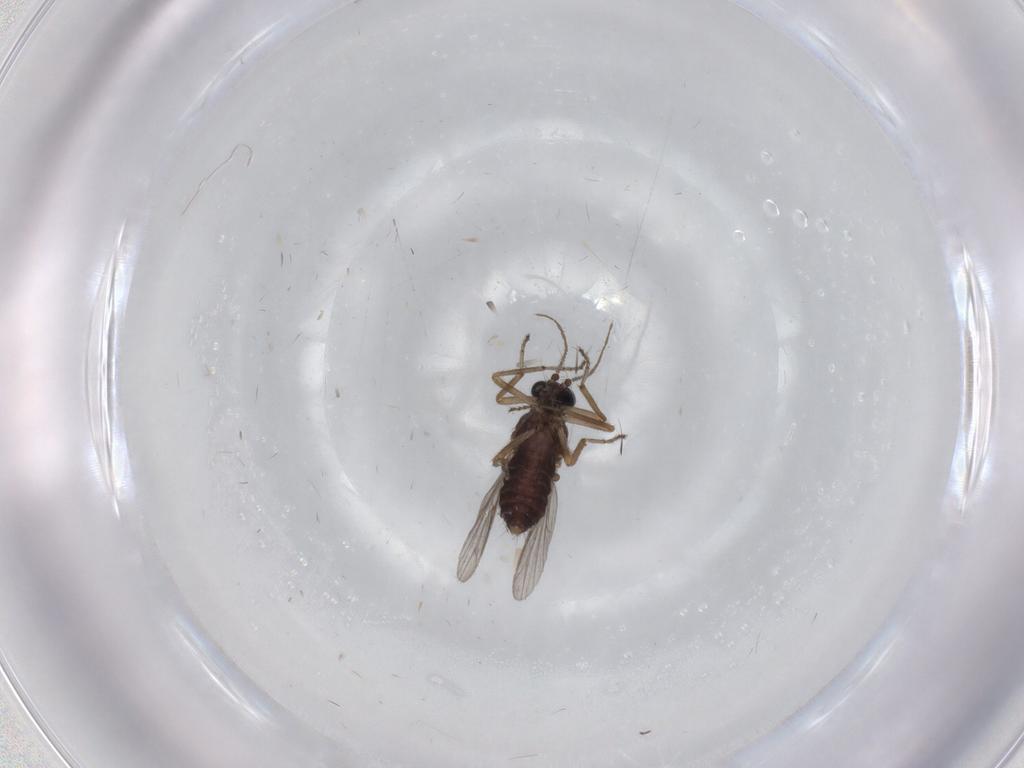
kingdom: Animalia
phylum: Arthropoda
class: Insecta
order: Diptera
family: Ceratopogonidae
